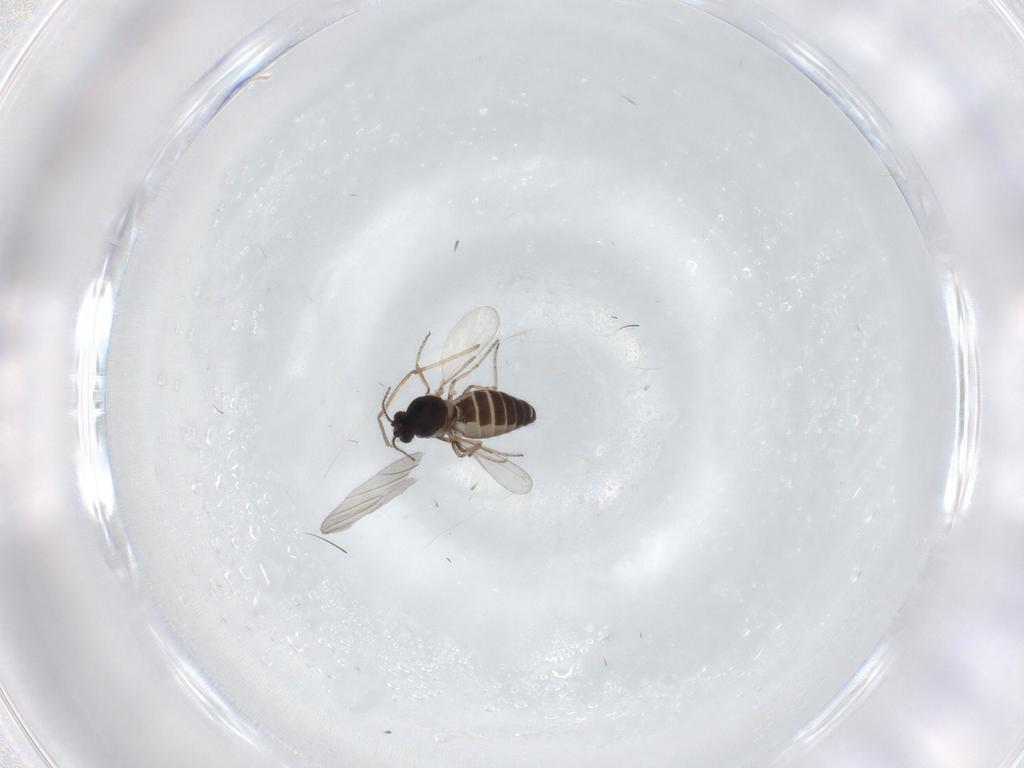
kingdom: Animalia
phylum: Arthropoda
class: Insecta
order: Diptera
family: Ceratopogonidae
